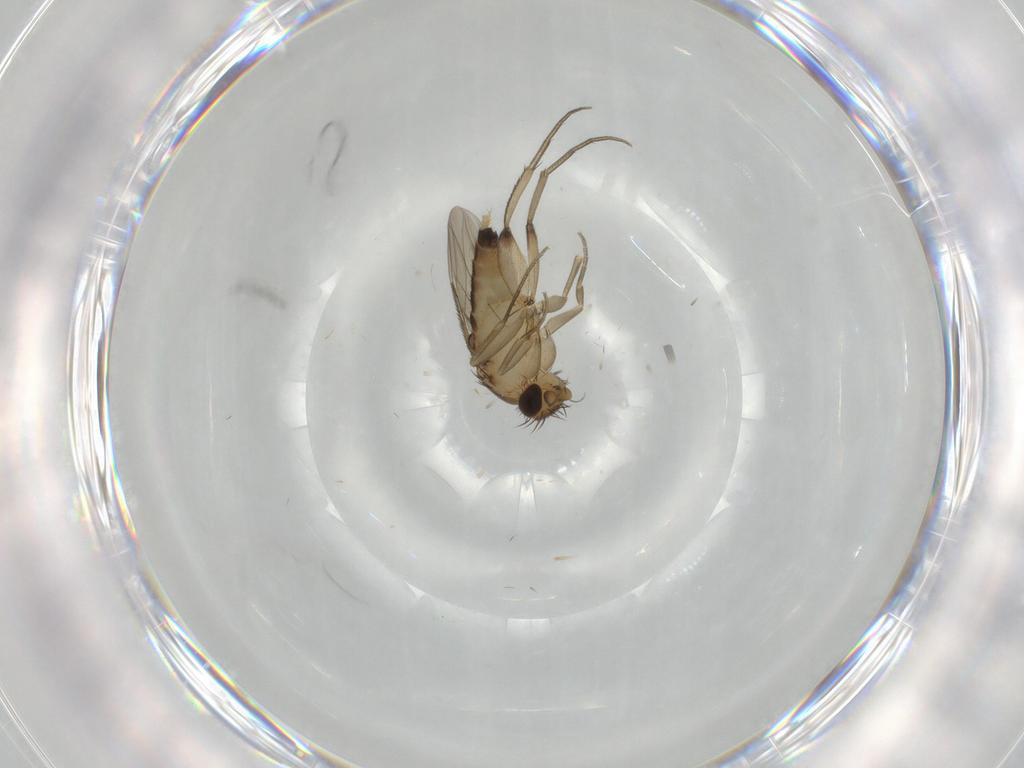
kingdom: Animalia
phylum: Arthropoda
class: Insecta
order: Diptera
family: Phoridae
